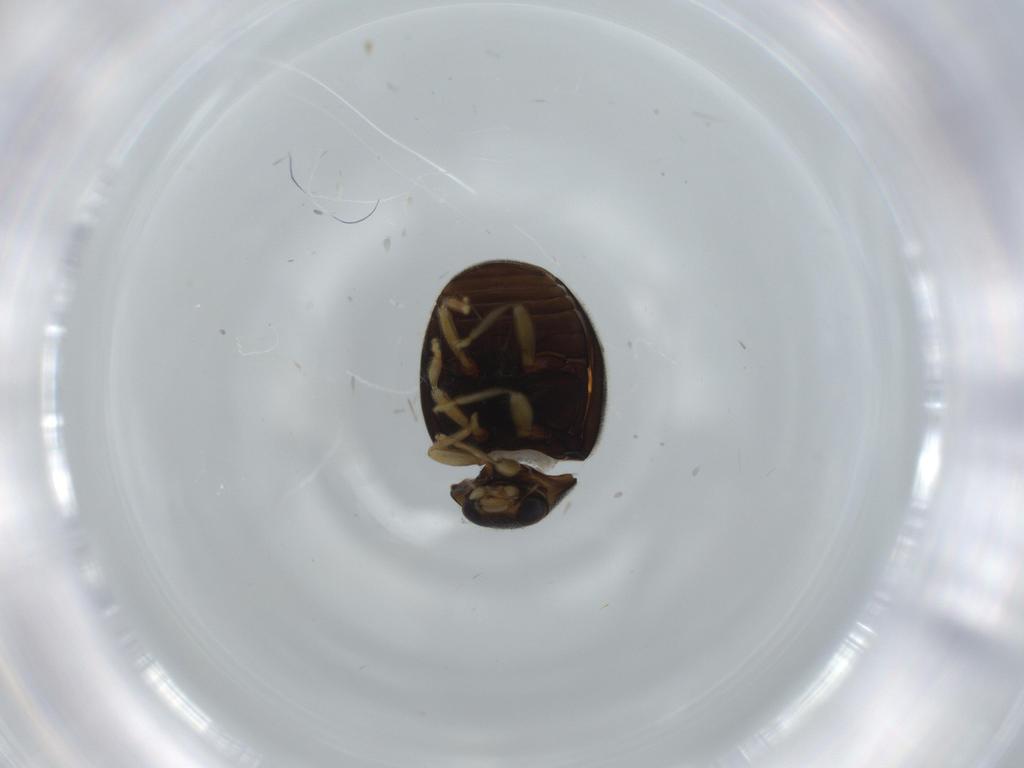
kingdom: Animalia
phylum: Arthropoda
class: Insecta
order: Coleoptera
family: Coccinellidae
